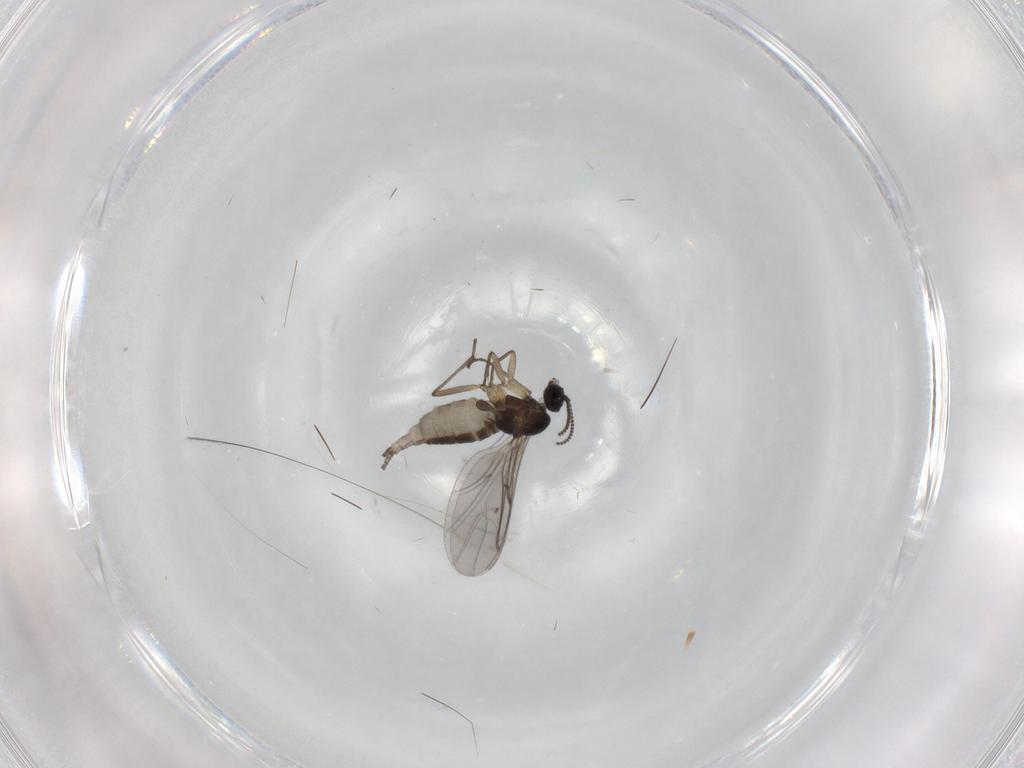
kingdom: Animalia
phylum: Arthropoda
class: Insecta
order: Diptera
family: Sciaridae
